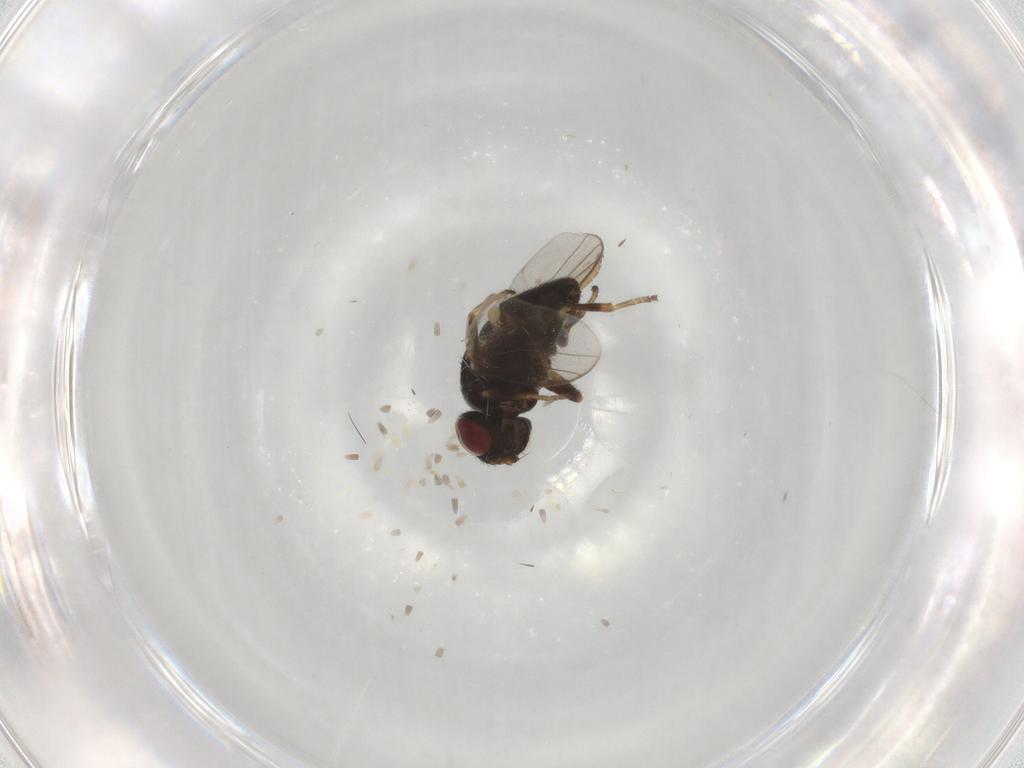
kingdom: Animalia
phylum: Arthropoda
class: Insecta
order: Diptera
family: Chloropidae
